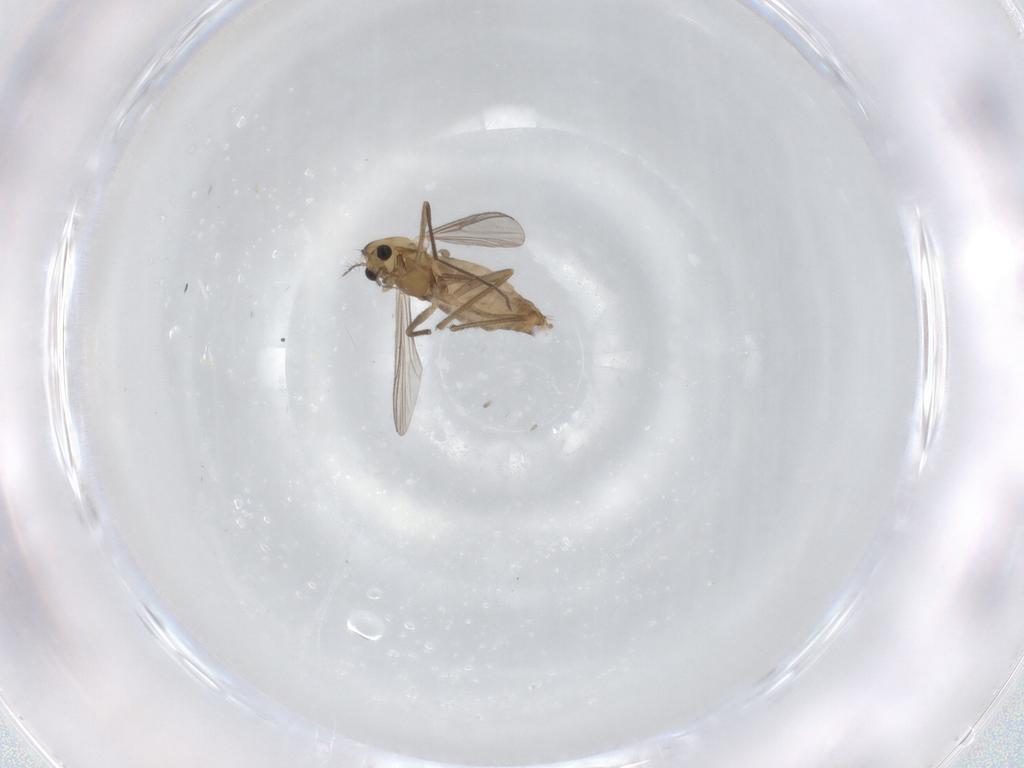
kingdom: Animalia
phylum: Arthropoda
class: Insecta
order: Diptera
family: Chironomidae
